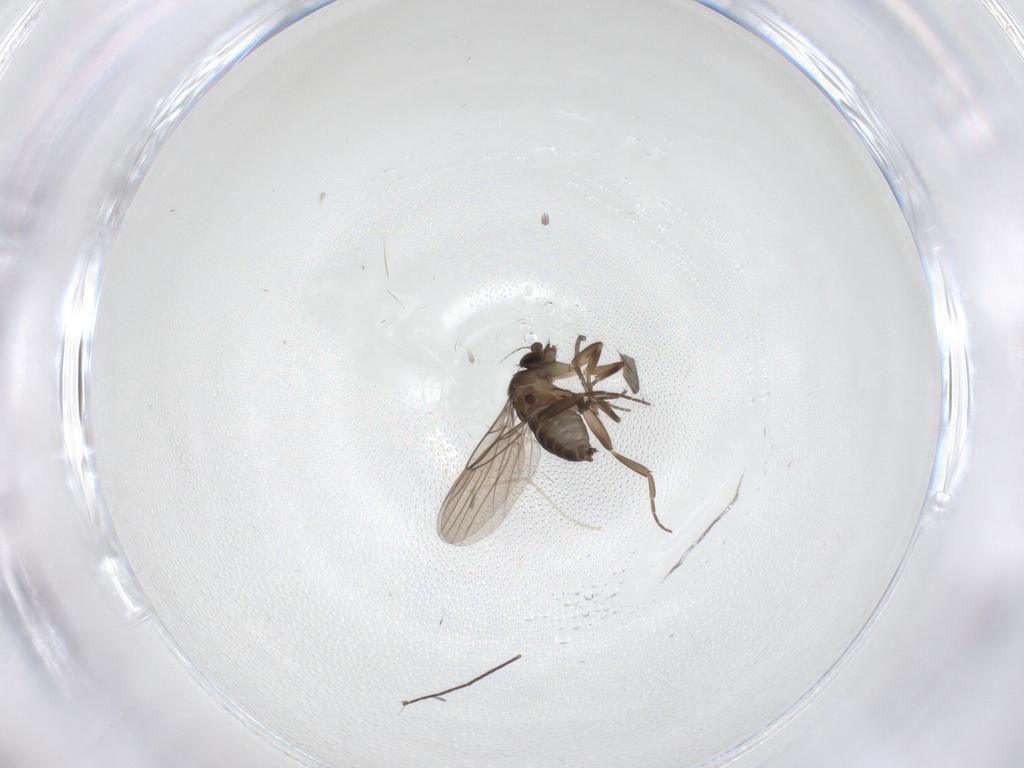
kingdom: Animalia
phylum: Arthropoda
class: Insecta
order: Diptera
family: Chironomidae
